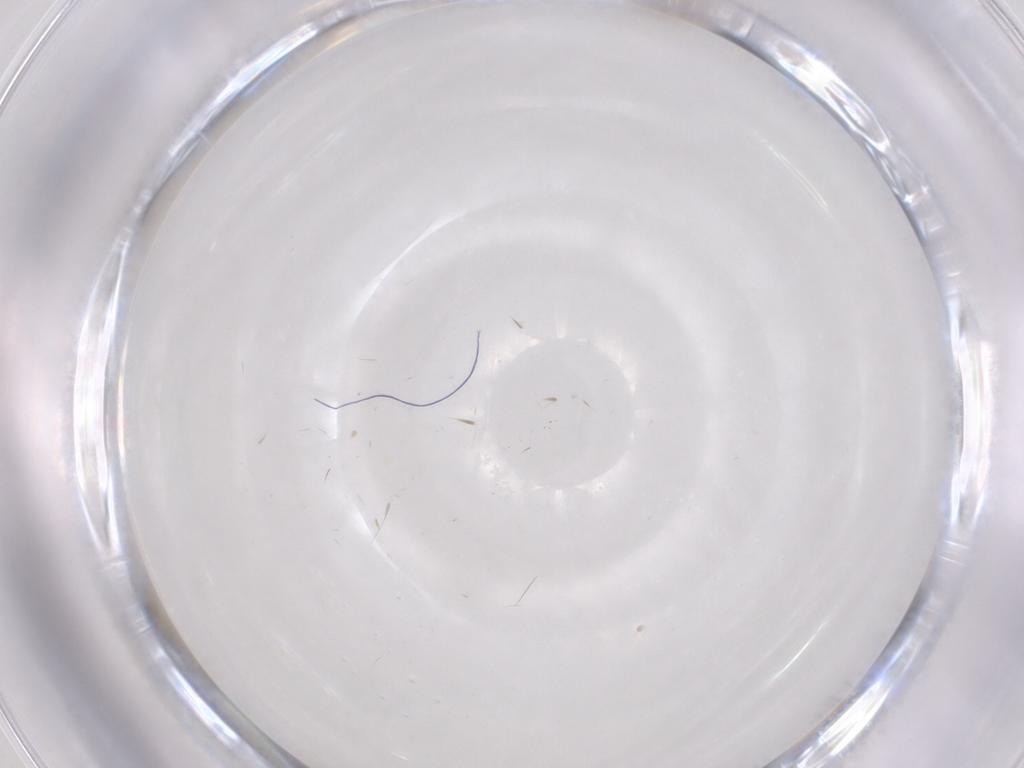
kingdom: Animalia
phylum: Arthropoda
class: Insecta
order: Diptera
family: Cecidomyiidae
